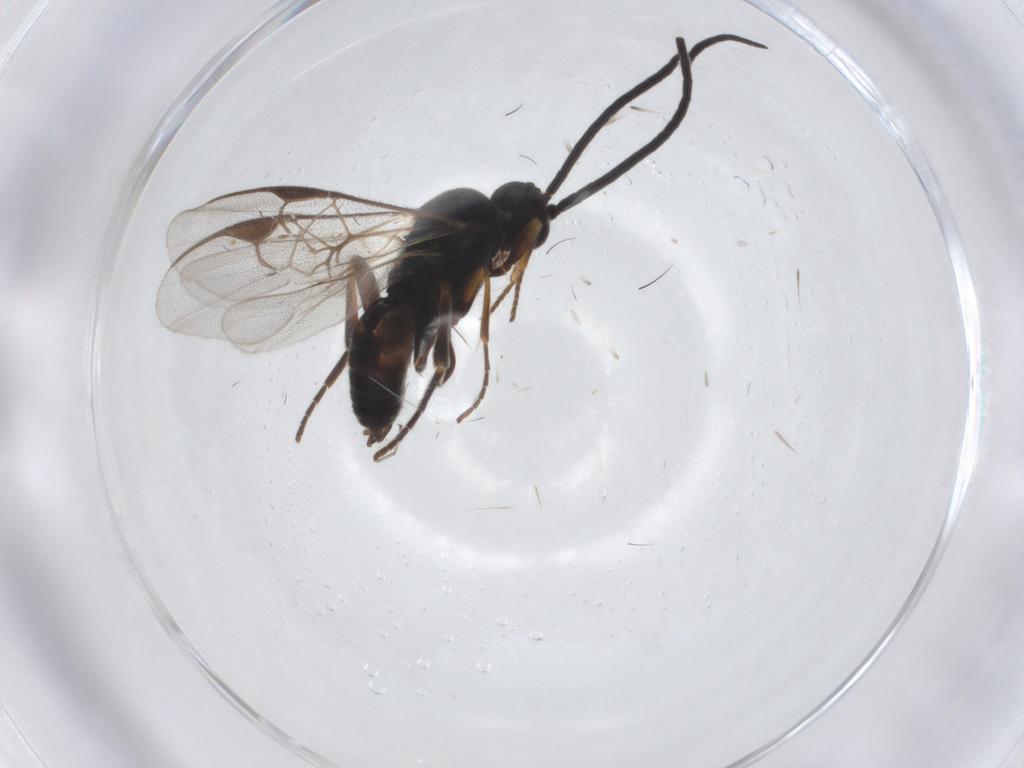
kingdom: Animalia
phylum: Arthropoda
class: Insecta
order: Hymenoptera
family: Braconidae
